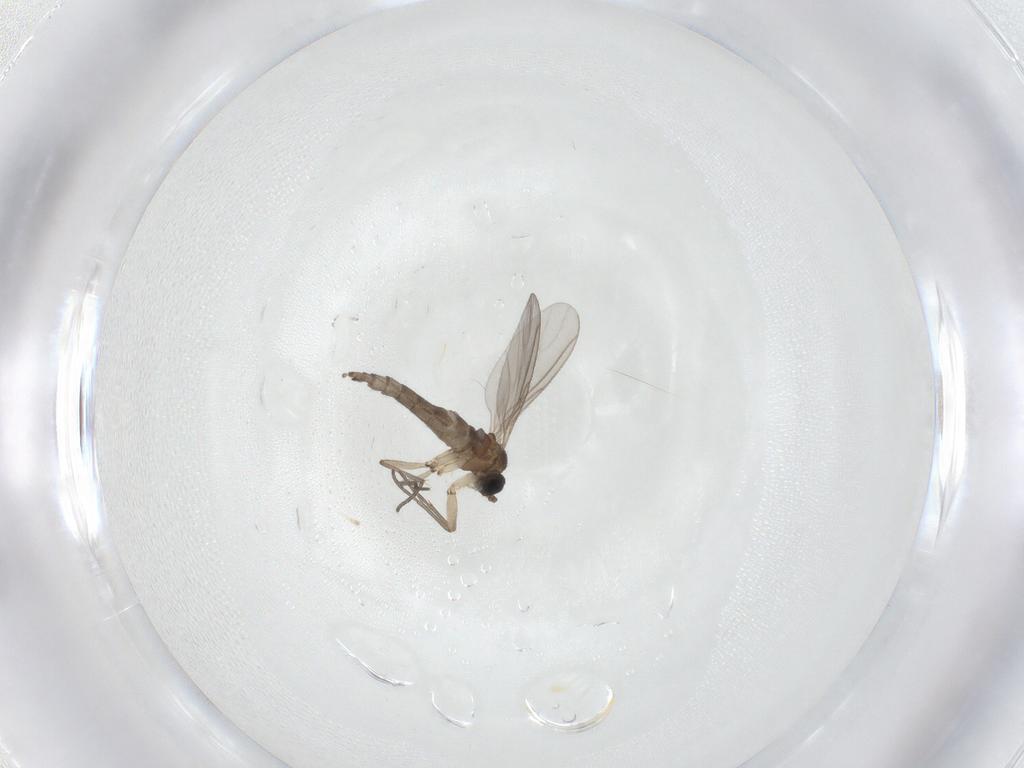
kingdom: Animalia
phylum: Arthropoda
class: Insecta
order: Diptera
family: Sciaridae
